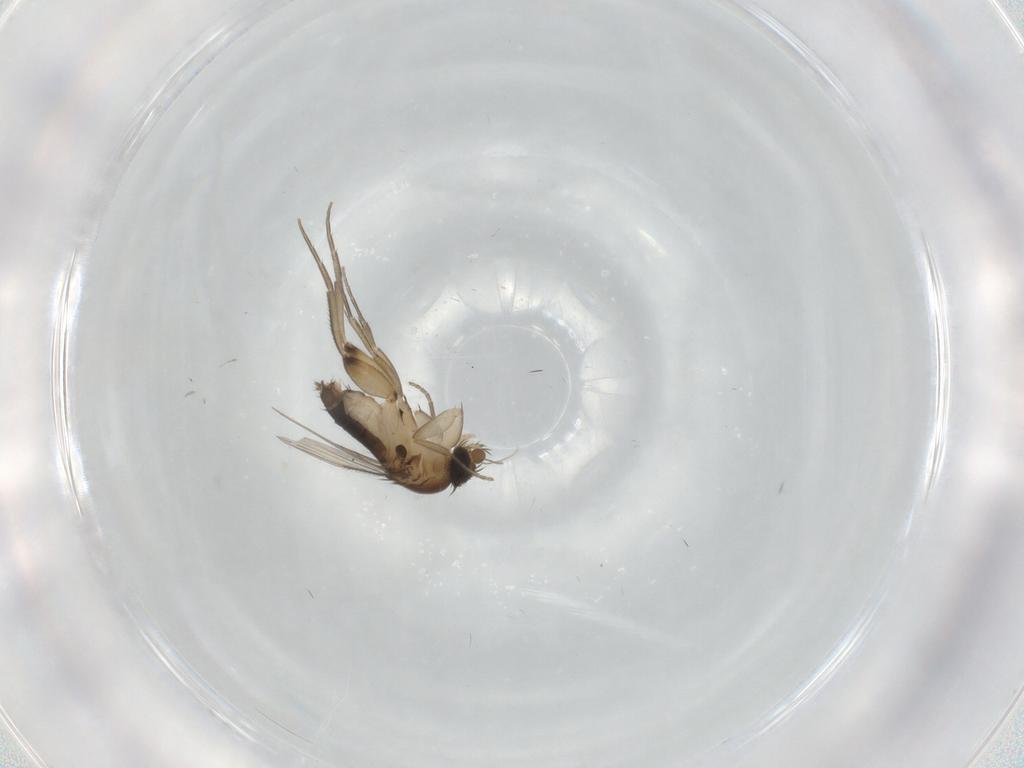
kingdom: Animalia
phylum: Arthropoda
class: Insecta
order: Diptera
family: Phoridae
